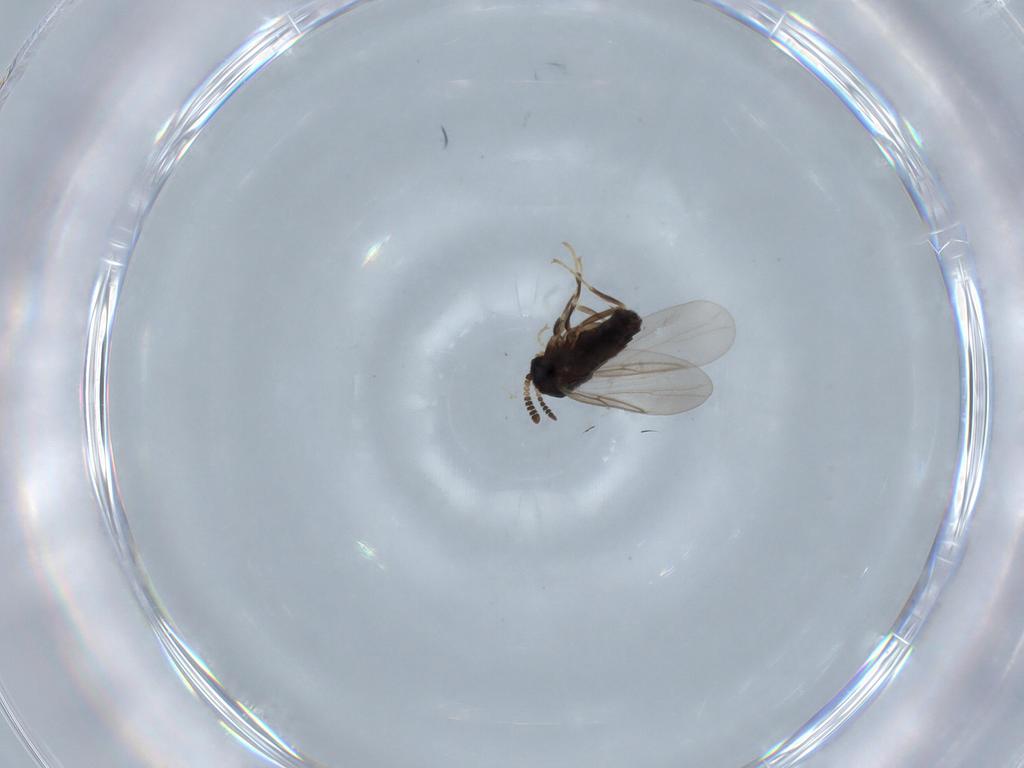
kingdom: Animalia
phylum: Arthropoda
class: Insecta
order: Diptera
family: Hybotidae
